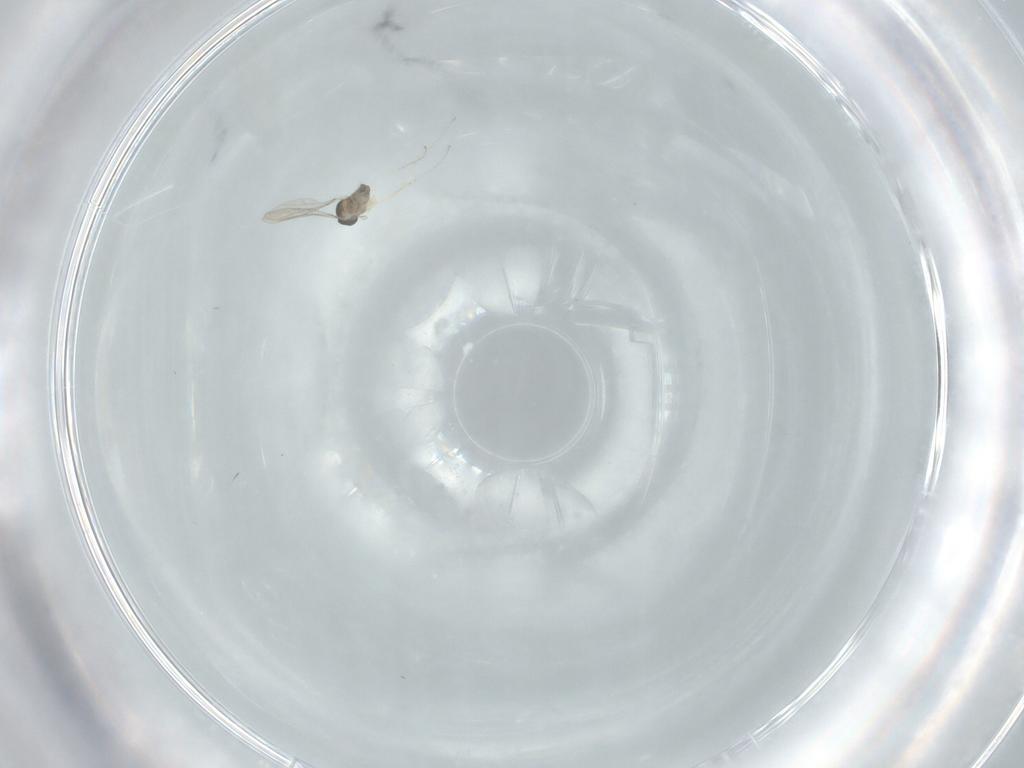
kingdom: Animalia
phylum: Arthropoda
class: Insecta
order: Diptera
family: Cecidomyiidae
